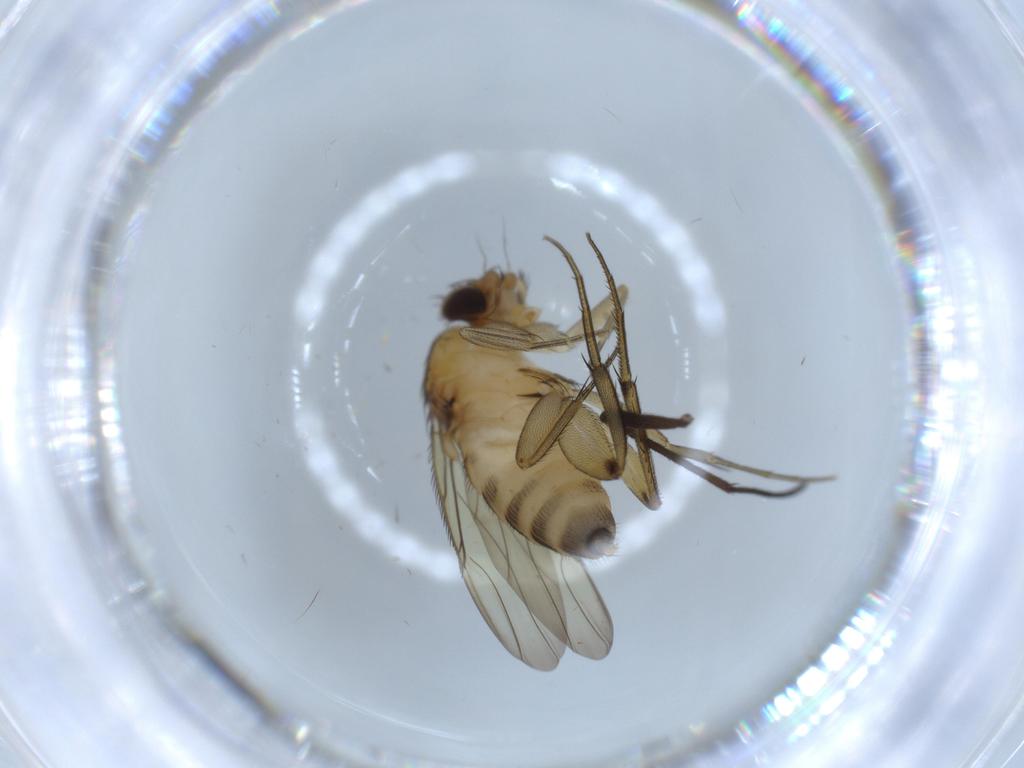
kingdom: Animalia
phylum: Arthropoda
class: Insecta
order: Diptera
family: Phoridae
